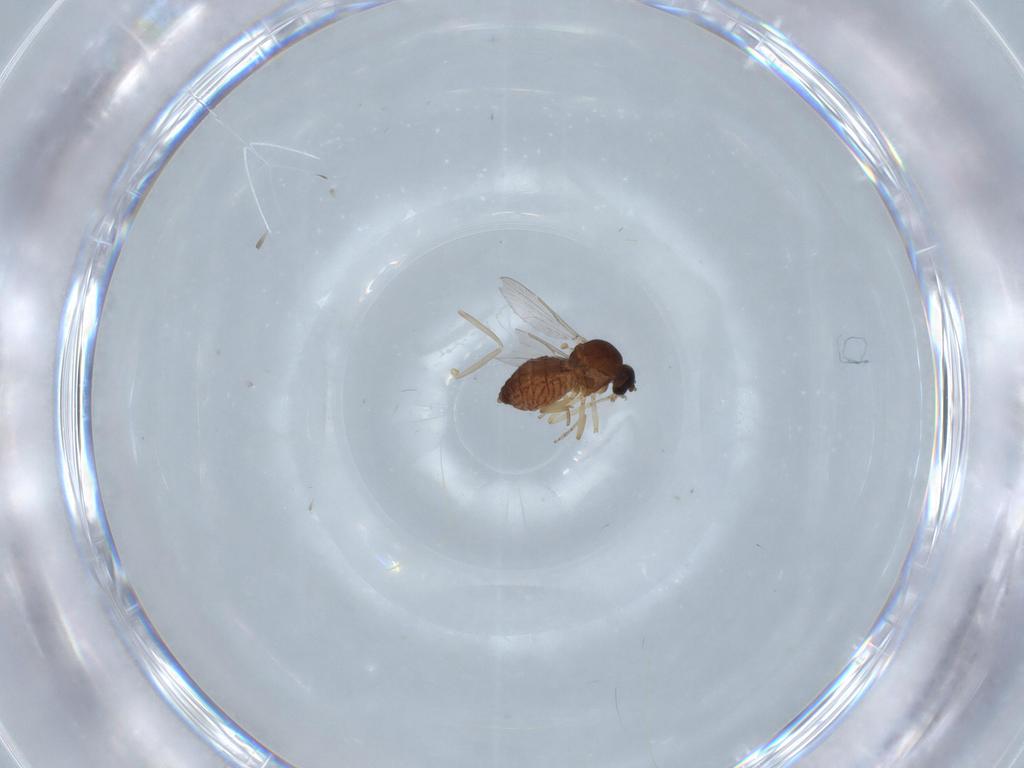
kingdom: Animalia
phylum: Arthropoda
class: Insecta
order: Diptera
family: Ceratopogonidae
